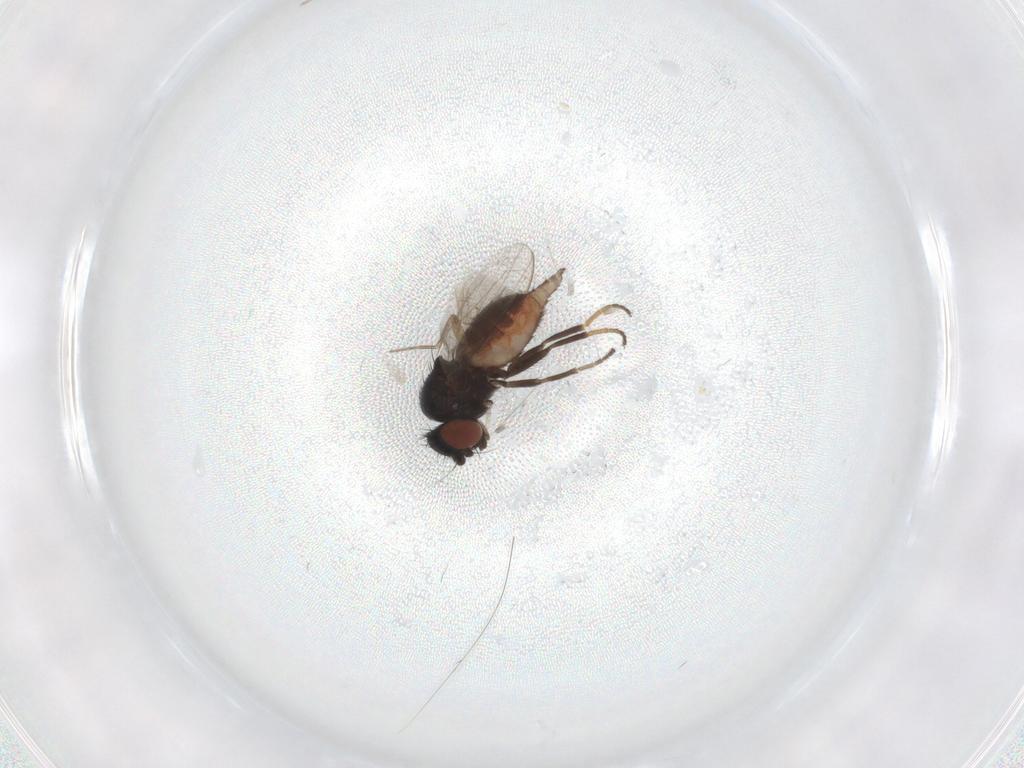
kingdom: Animalia
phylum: Arthropoda
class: Insecta
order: Diptera
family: Milichiidae
